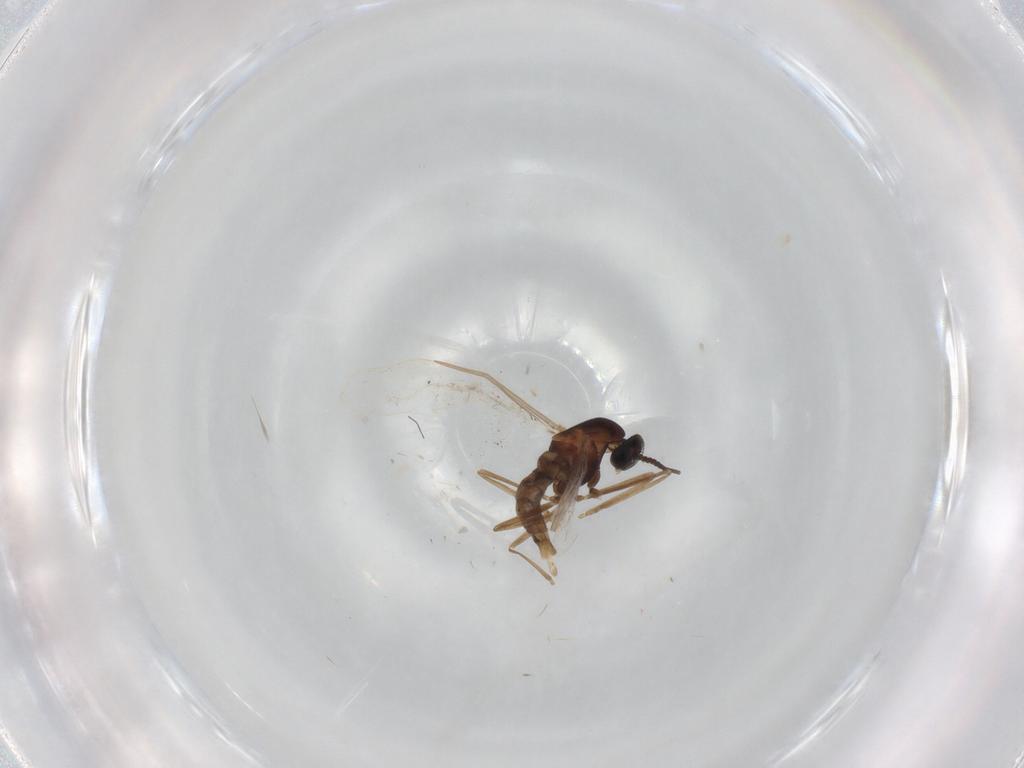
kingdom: Animalia
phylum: Arthropoda
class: Insecta
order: Diptera
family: Cecidomyiidae
